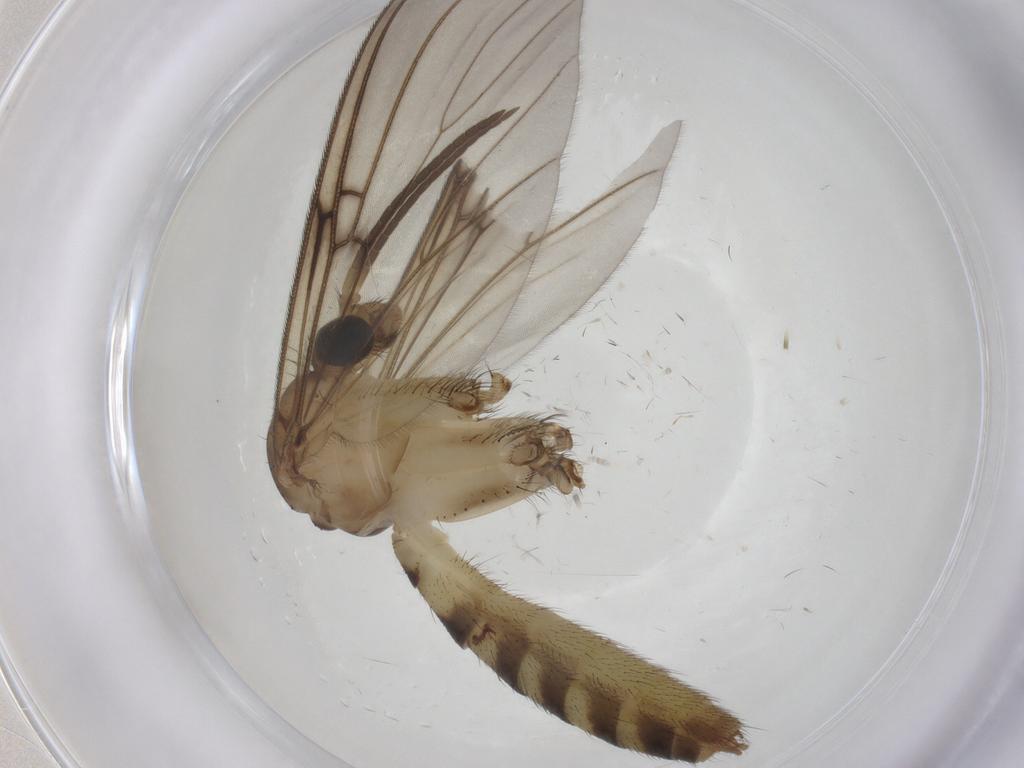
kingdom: Animalia
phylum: Arthropoda
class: Insecta
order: Diptera
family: Mycetophilidae
